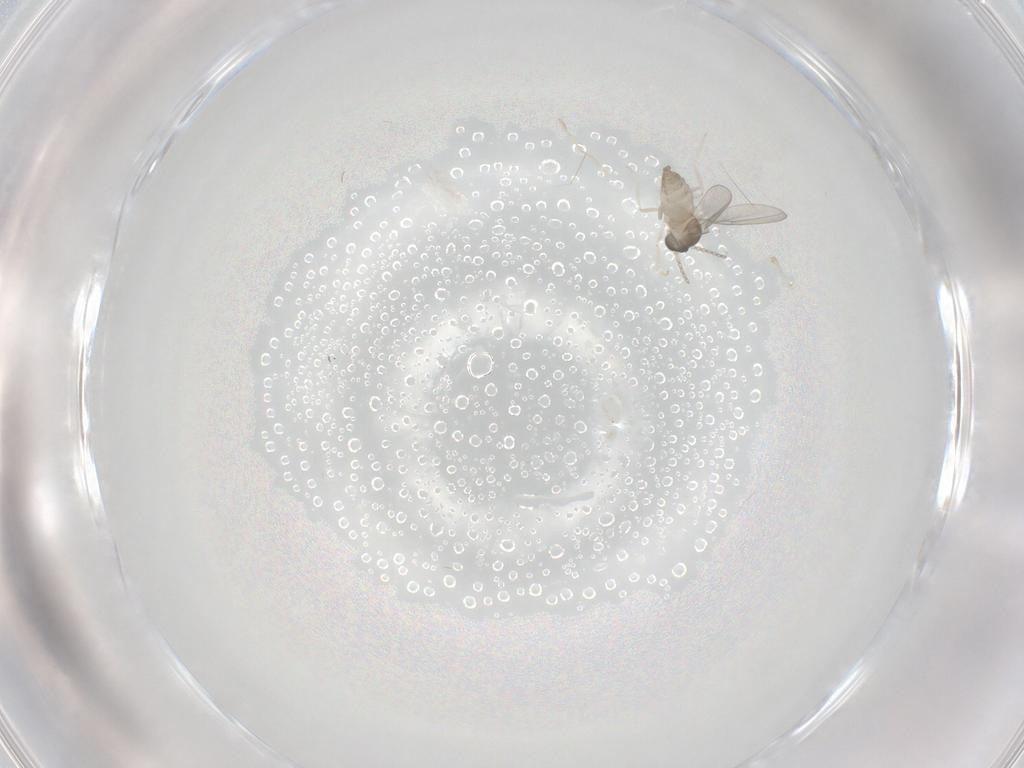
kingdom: Animalia
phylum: Arthropoda
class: Insecta
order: Diptera
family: Cecidomyiidae
